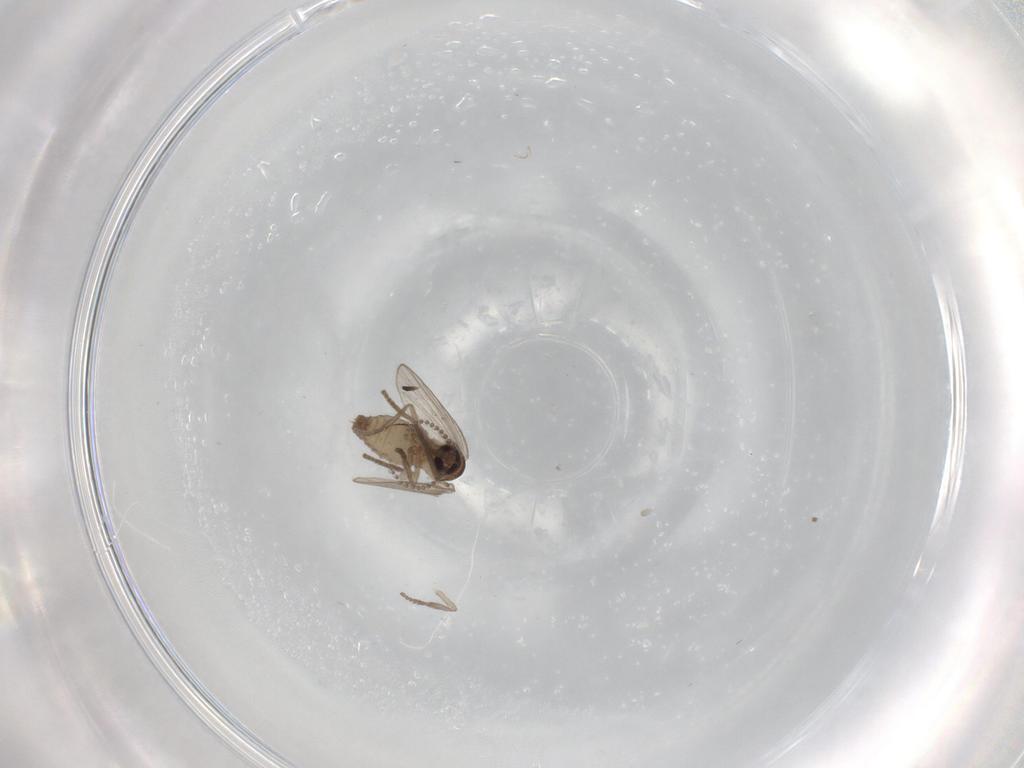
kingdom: Animalia
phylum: Arthropoda
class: Insecta
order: Diptera
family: Psychodidae
